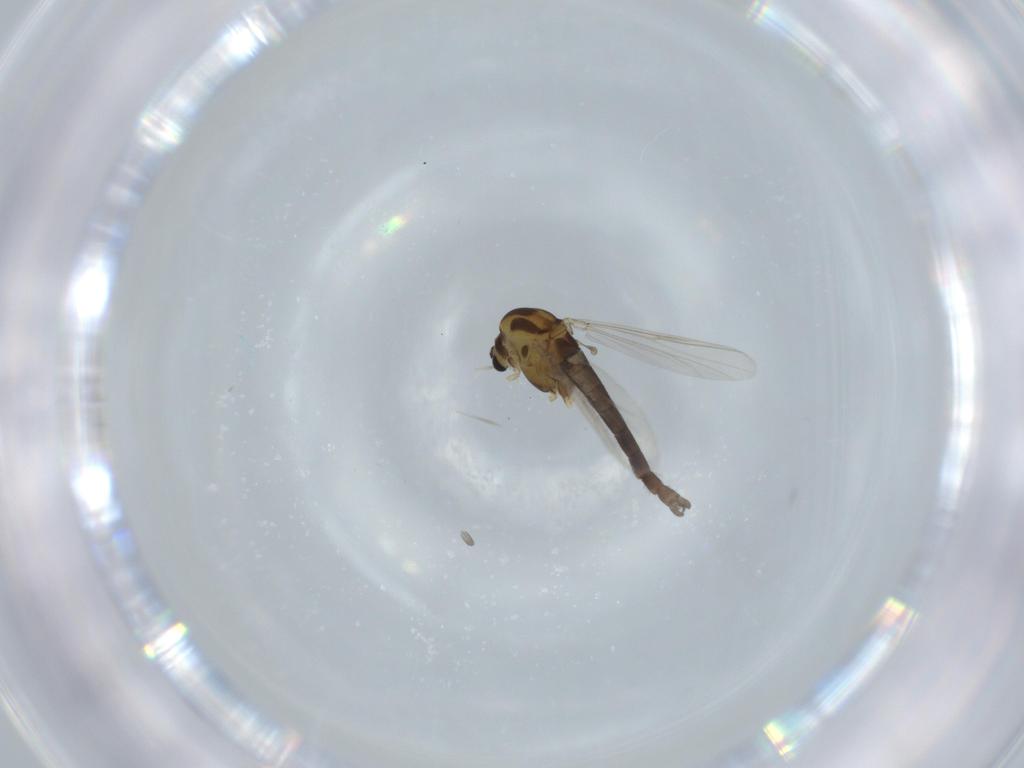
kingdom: Animalia
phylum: Arthropoda
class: Insecta
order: Diptera
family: Chironomidae
